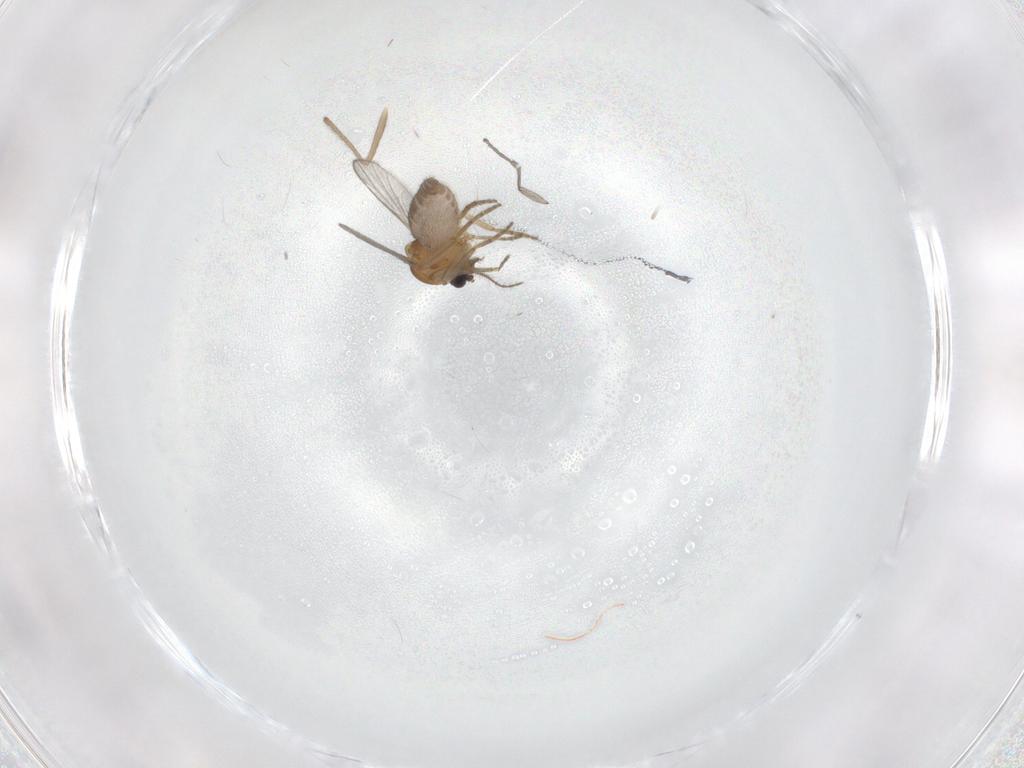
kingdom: Animalia
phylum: Arthropoda
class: Insecta
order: Diptera
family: Sciaridae
